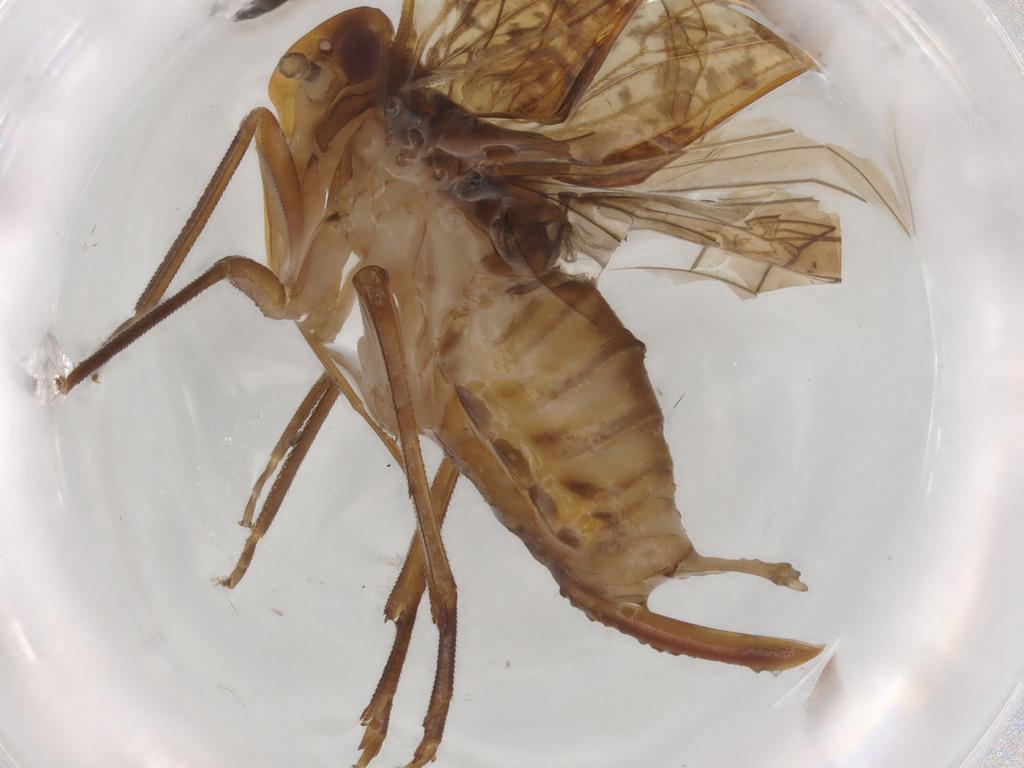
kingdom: Animalia
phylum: Arthropoda
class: Insecta
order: Hemiptera
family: Cixiidae
